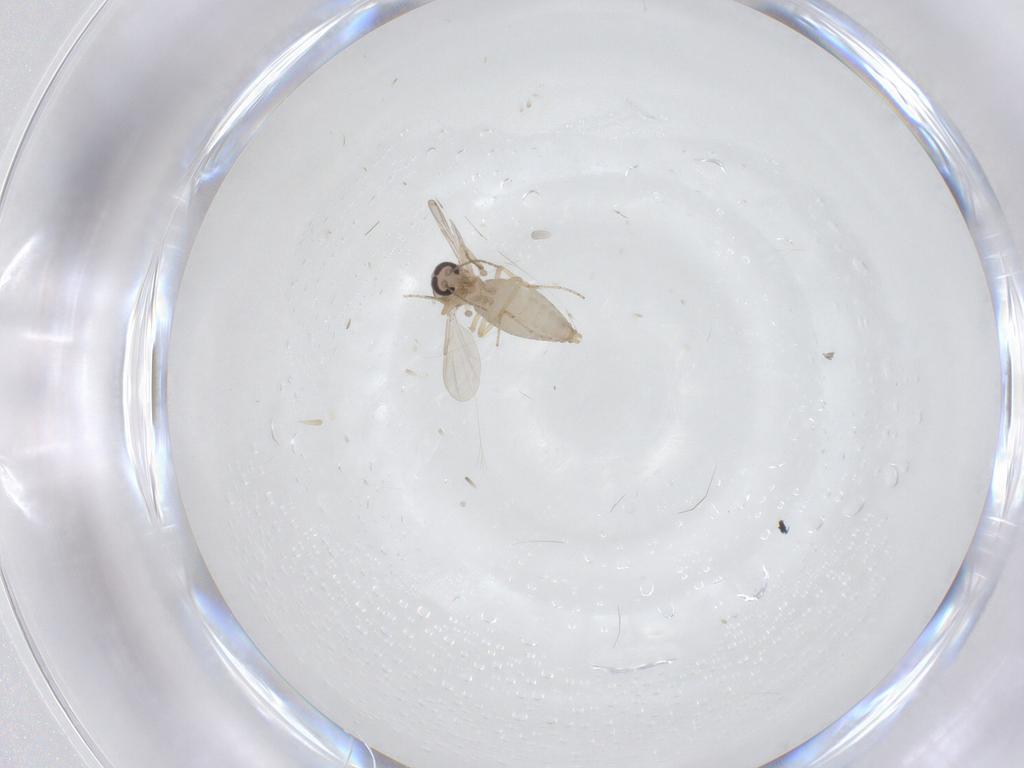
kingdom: Animalia
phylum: Arthropoda
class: Insecta
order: Diptera
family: Ceratopogonidae
